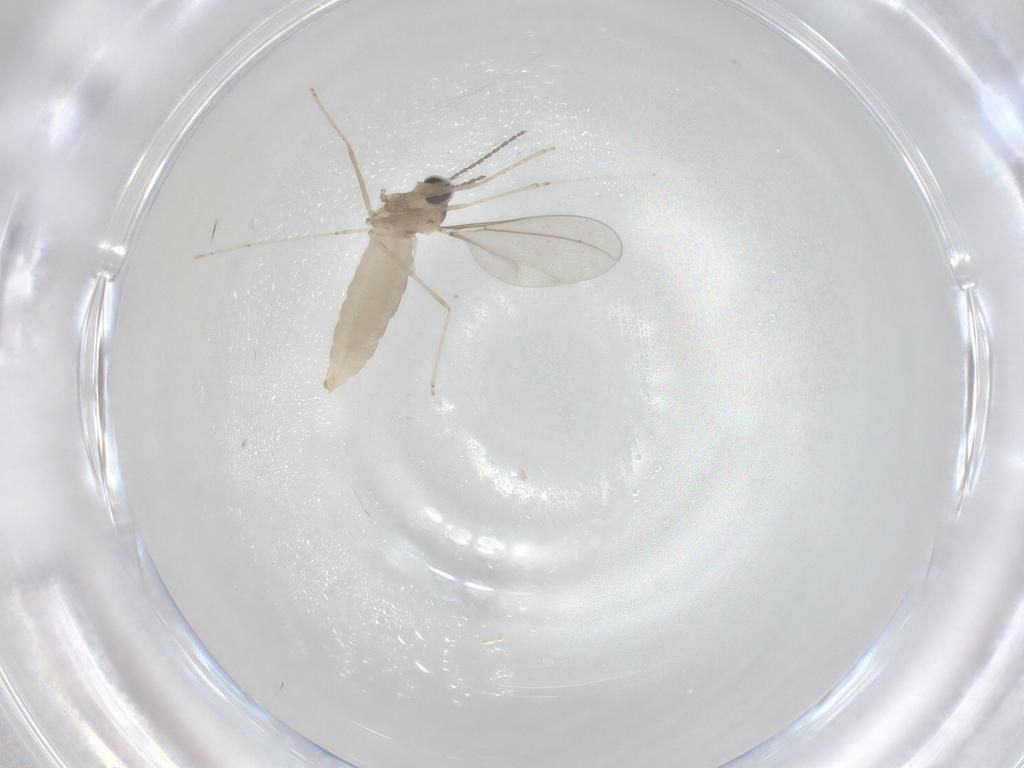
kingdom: Animalia
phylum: Arthropoda
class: Insecta
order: Diptera
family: Cecidomyiidae
